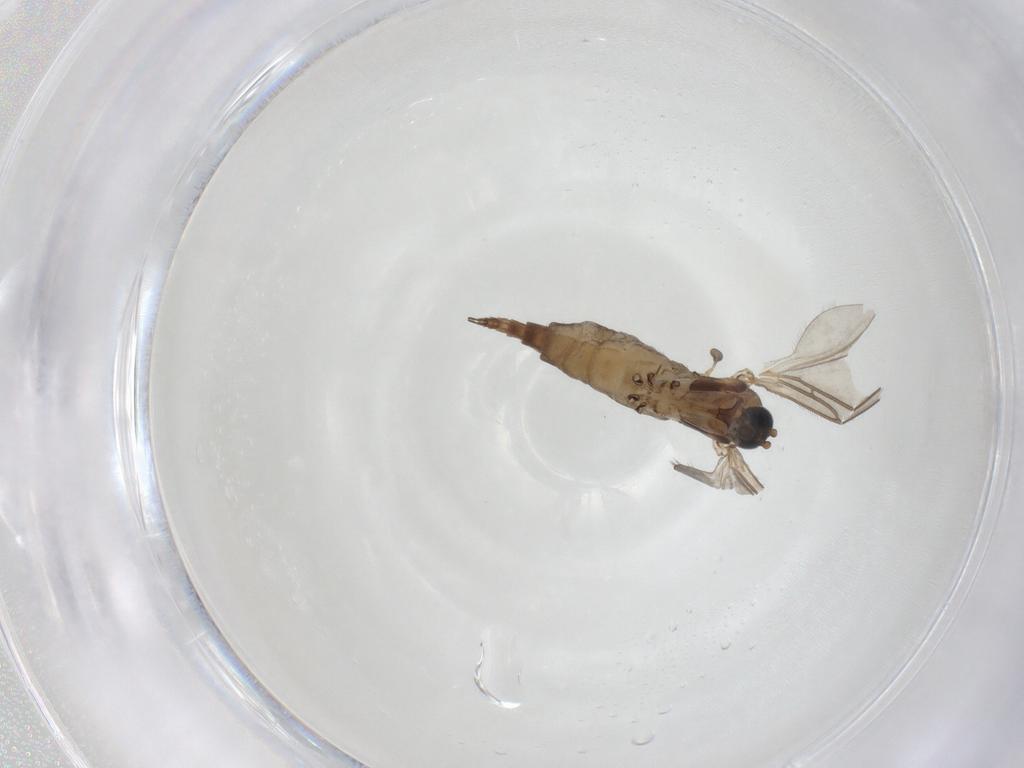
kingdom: Animalia
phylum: Arthropoda
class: Insecta
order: Diptera
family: Sciaridae
